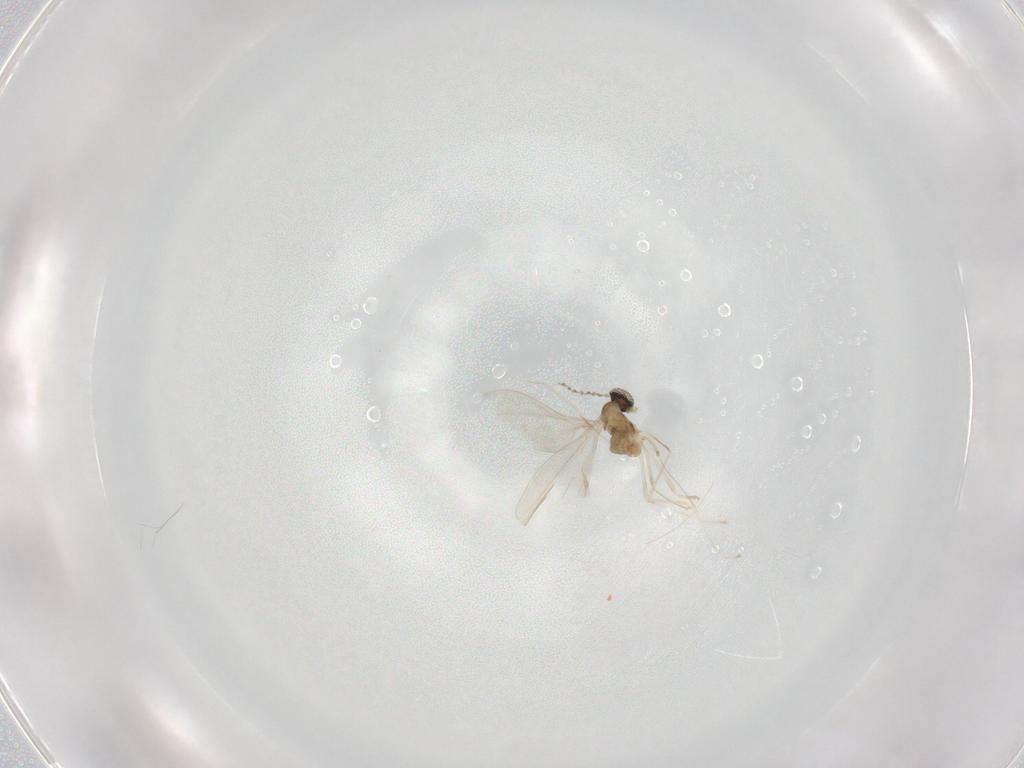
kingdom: Animalia
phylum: Arthropoda
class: Insecta
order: Diptera
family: Cecidomyiidae
